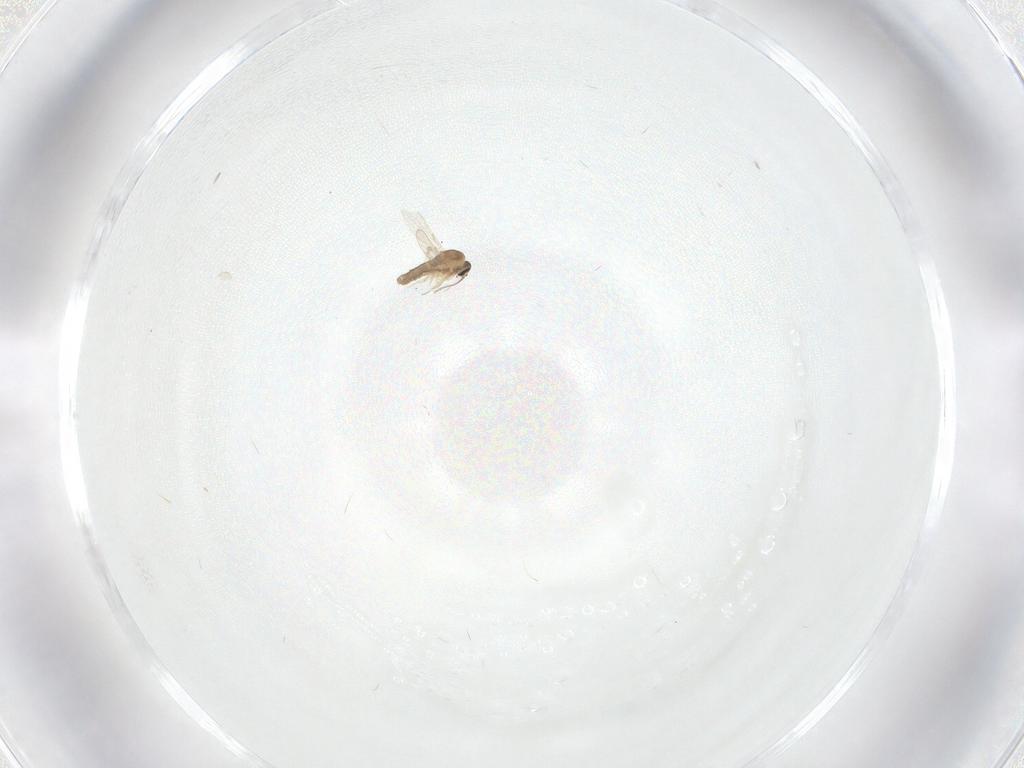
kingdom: Animalia
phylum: Arthropoda
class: Insecta
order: Diptera
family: Ceratopogonidae
